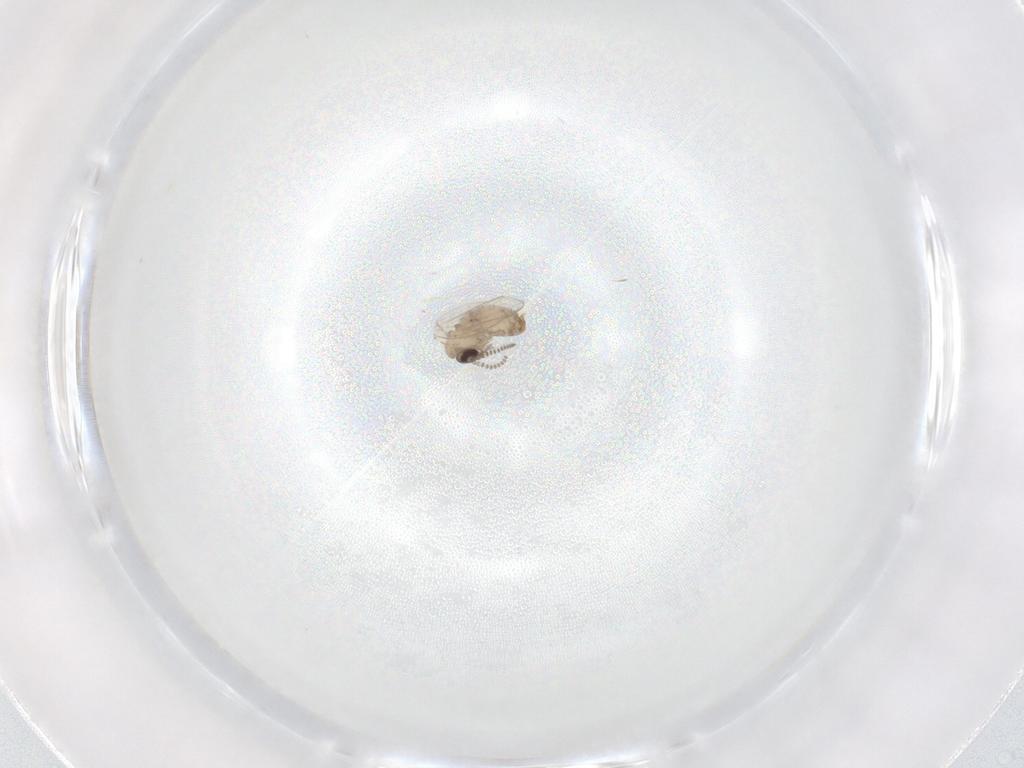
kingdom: Animalia
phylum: Arthropoda
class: Insecta
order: Diptera
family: Psychodidae
